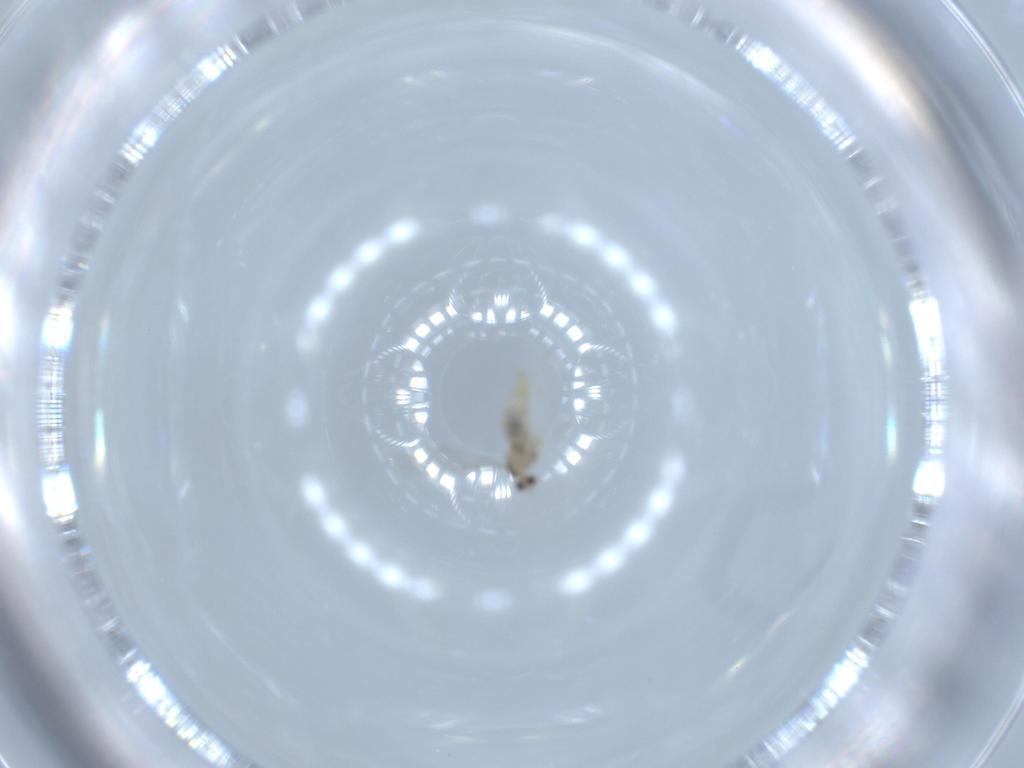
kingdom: Animalia
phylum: Arthropoda
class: Insecta
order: Diptera
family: Cecidomyiidae
